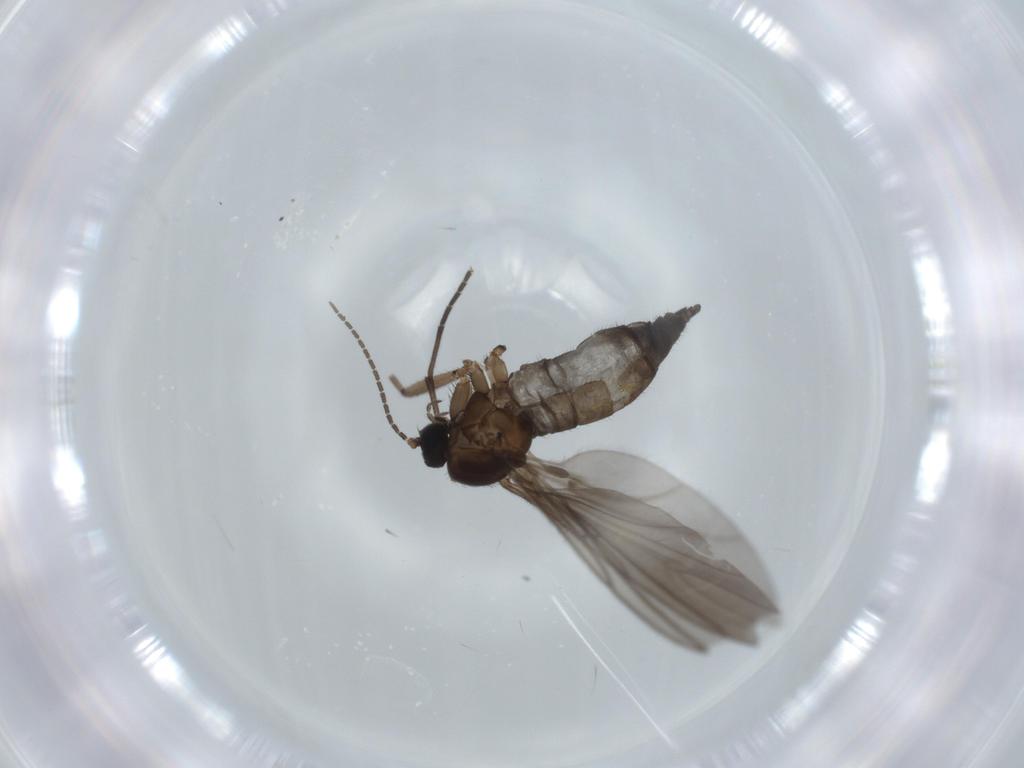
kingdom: Animalia
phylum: Arthropoda
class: Insecta
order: Diptera
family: Sciaridae
